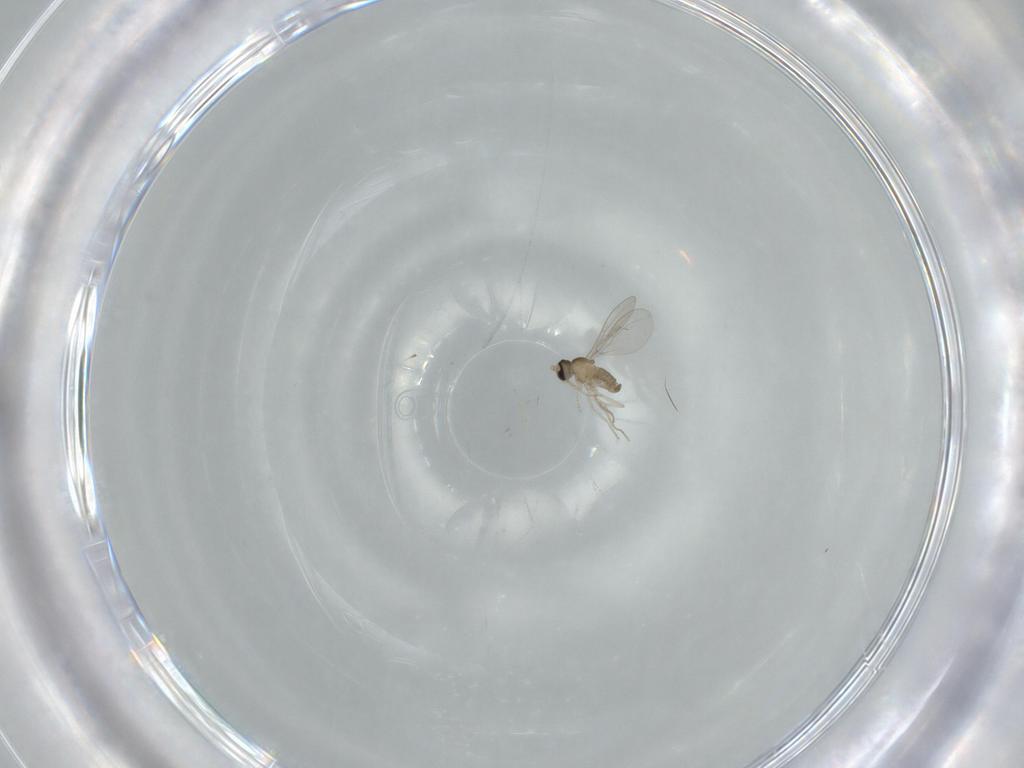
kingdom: Animalia
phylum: Arthropoda
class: Insecta
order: Diptera
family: Cecidomyiidae
